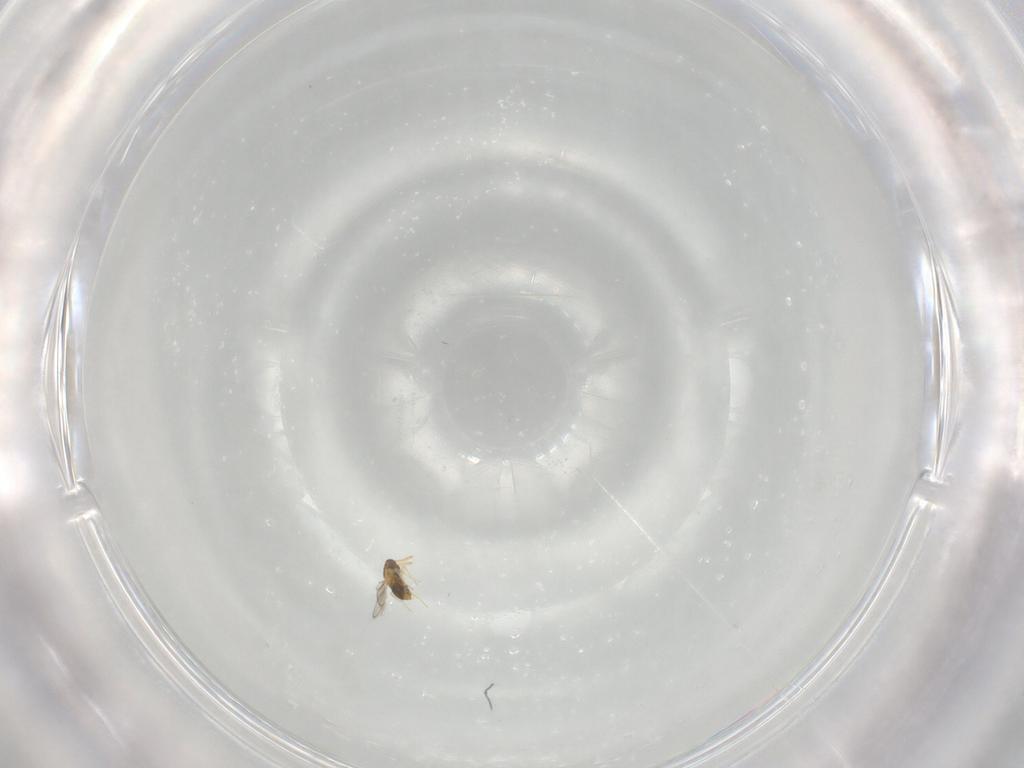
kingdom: Animalia
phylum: Arthropoda
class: Insecta
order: Hymenoptera
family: Aphelinidae
